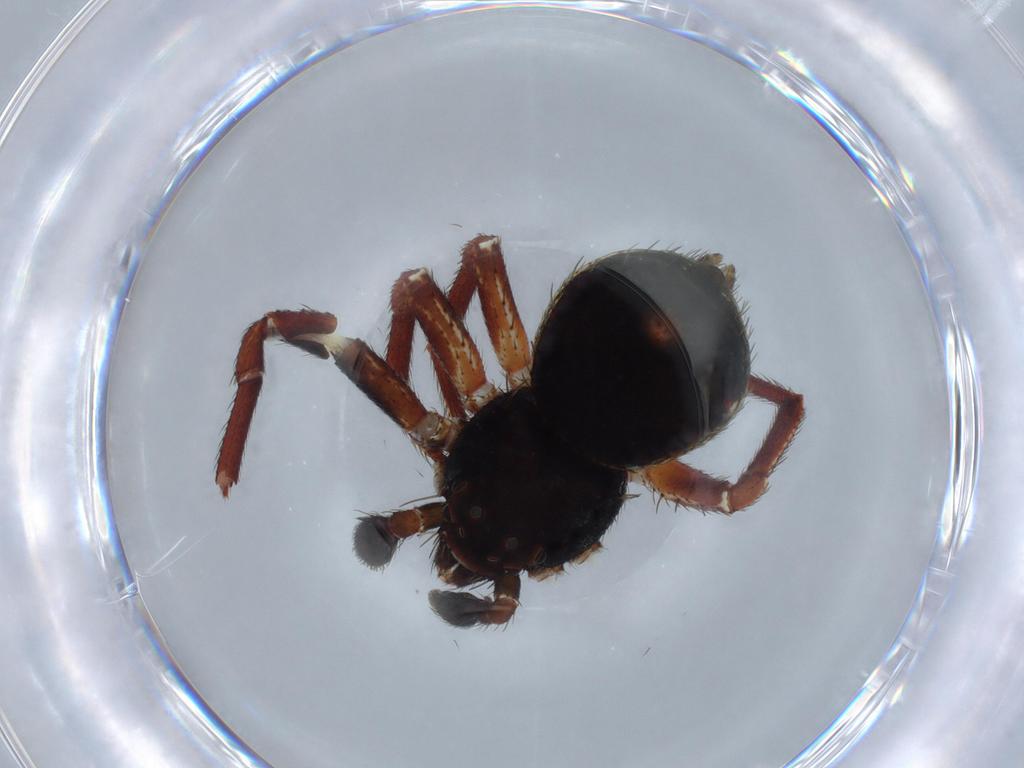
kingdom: Animalia
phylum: Arthropoda
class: Arachnida
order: Araneae
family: Thomisidae
